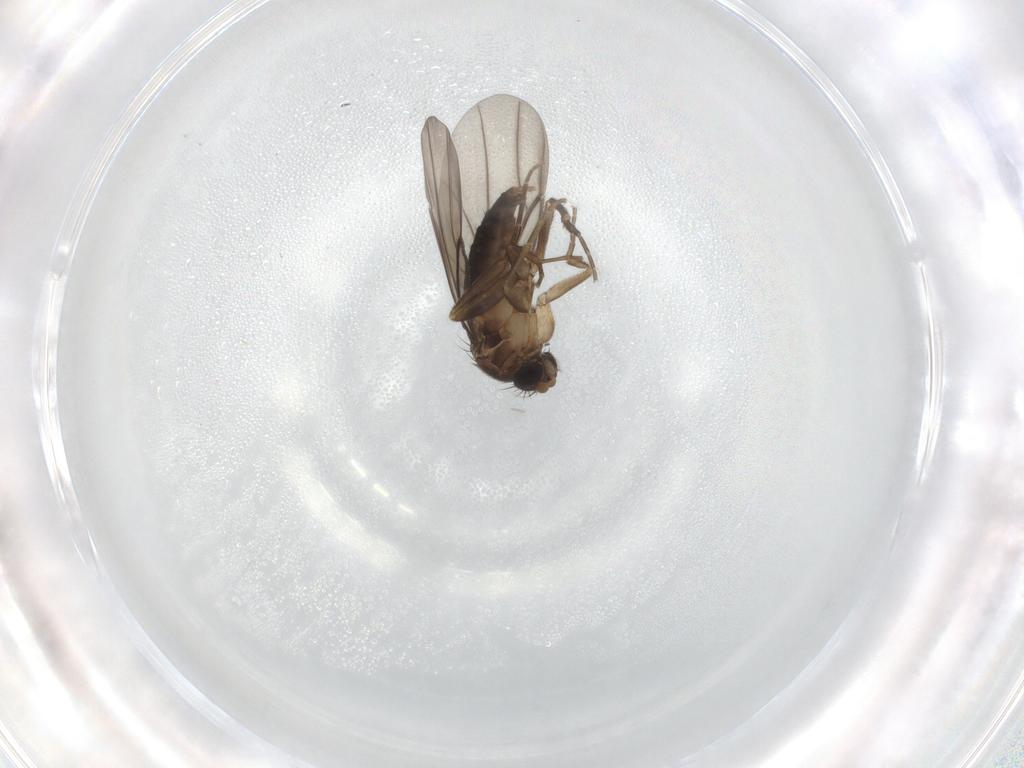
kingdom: Animalia
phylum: Arthropoda
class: Insecta
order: Diptera
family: Phoridae
